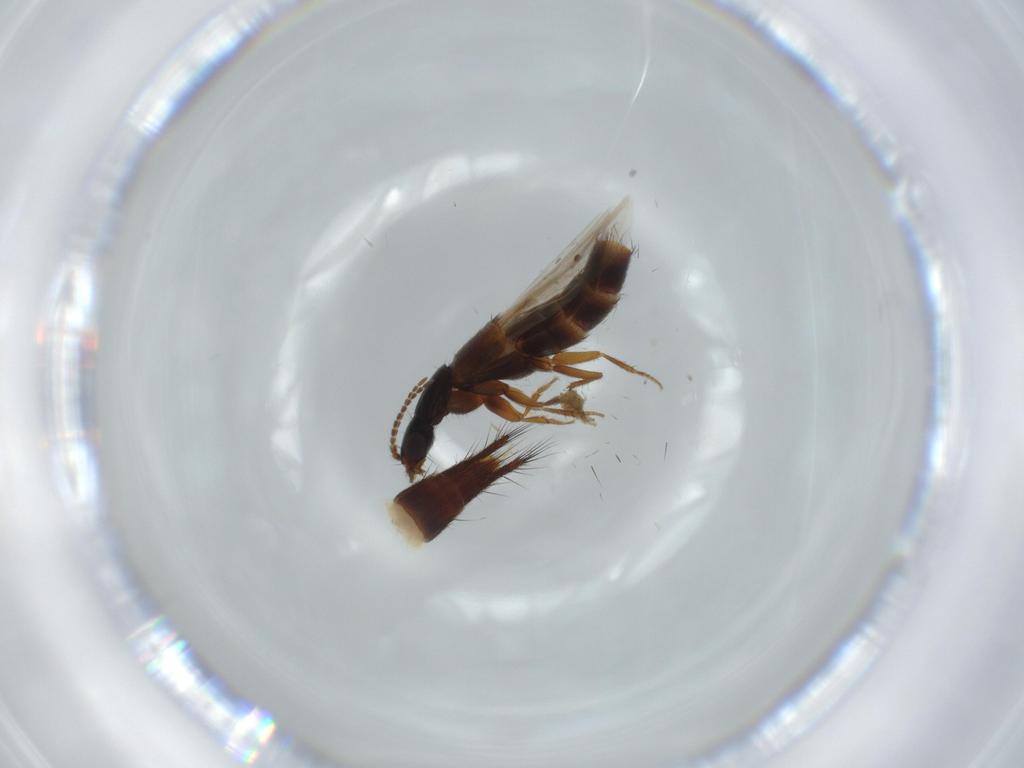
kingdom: Animalia
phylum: Arthropoda
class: Insecta
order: Coleoptera
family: Staphylinidae
